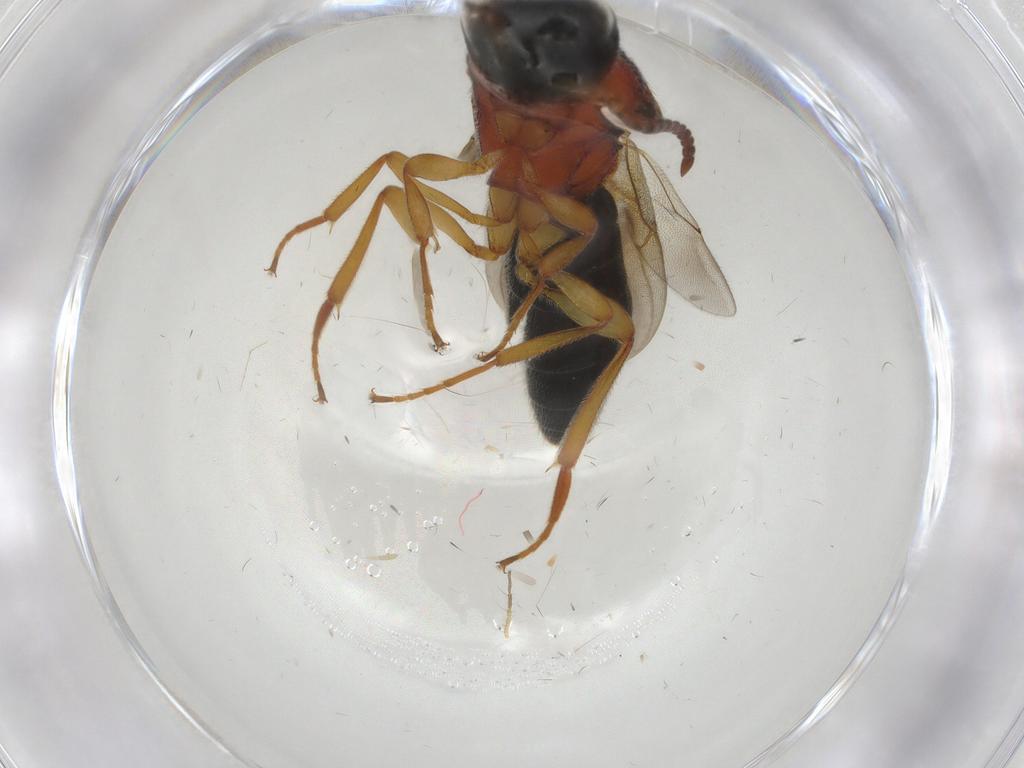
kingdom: Animalia
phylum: Arthropoda
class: Insecta
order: Hymenoptera
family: Scelionidae
